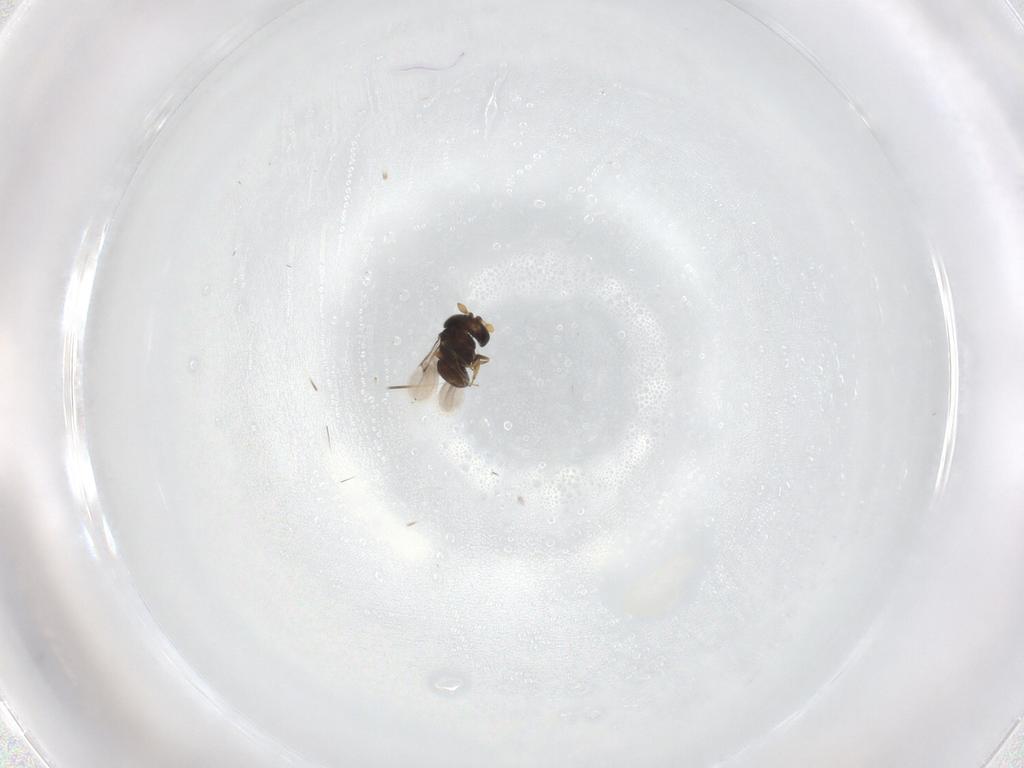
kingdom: Animalia
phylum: Arthropoda
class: Insecta
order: Hymenoptera
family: Scelionidae
